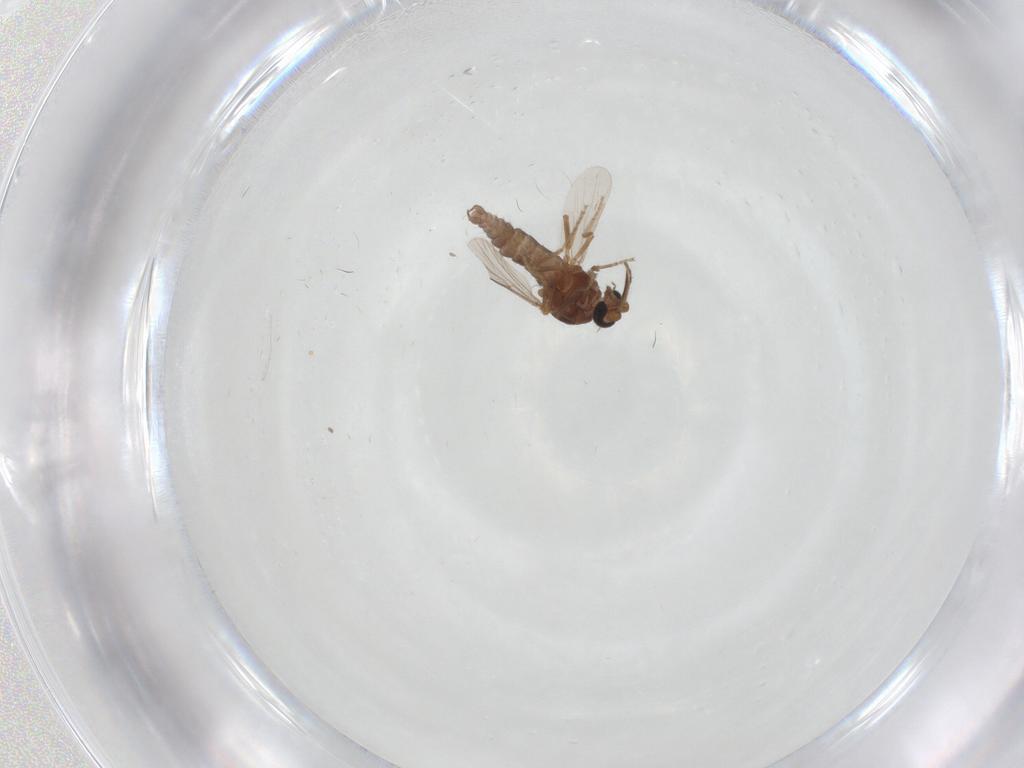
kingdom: Animalia
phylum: Arthropoda
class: Insecta
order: Diptera
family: Ceratopogonidae
